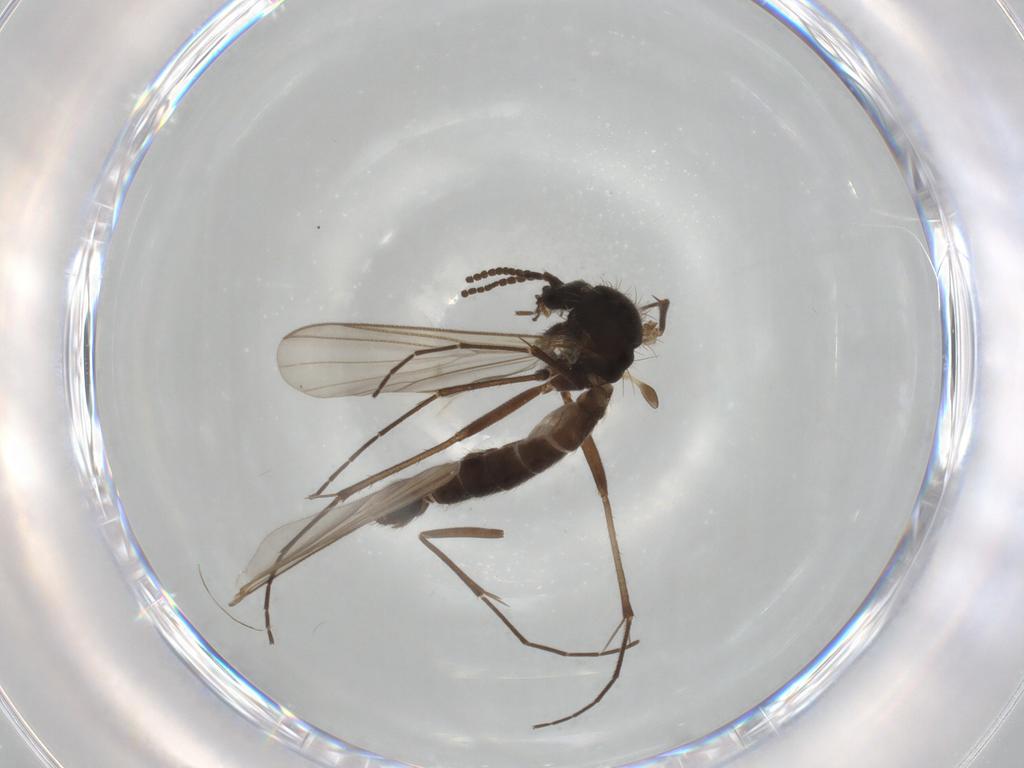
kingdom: Animalia
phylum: Arthropoda
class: Insecta
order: Diptera
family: Mycetophilidae
